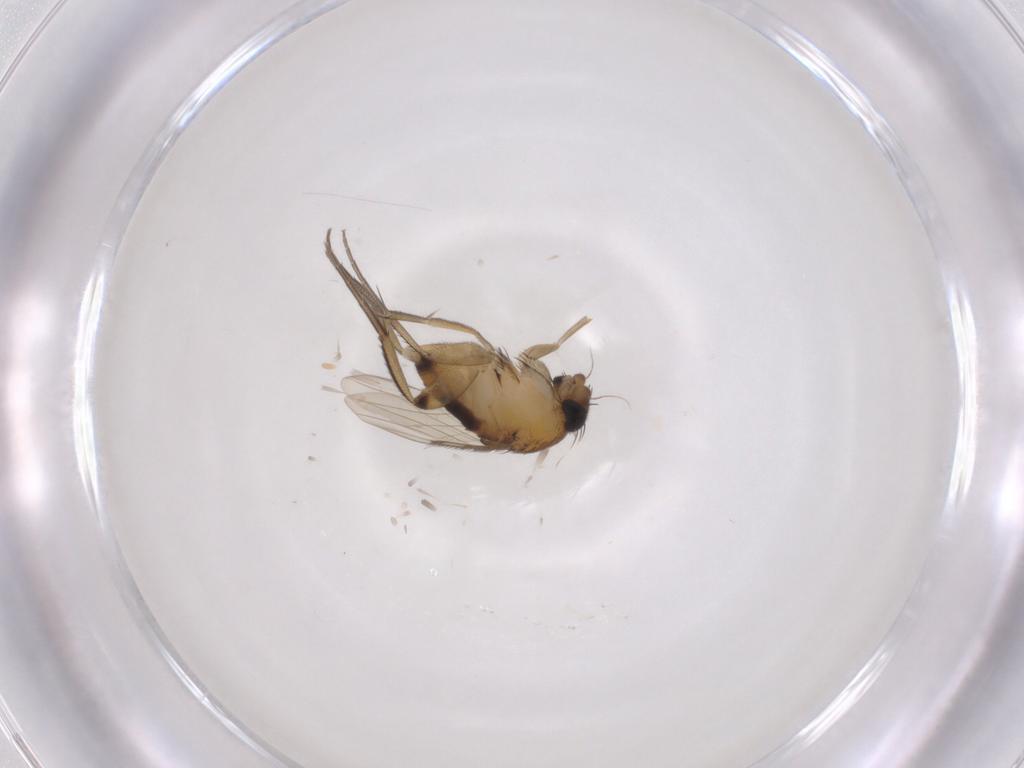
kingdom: Animalia
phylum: Arthropoda
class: Insecta
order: Diptera
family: Phoridae
